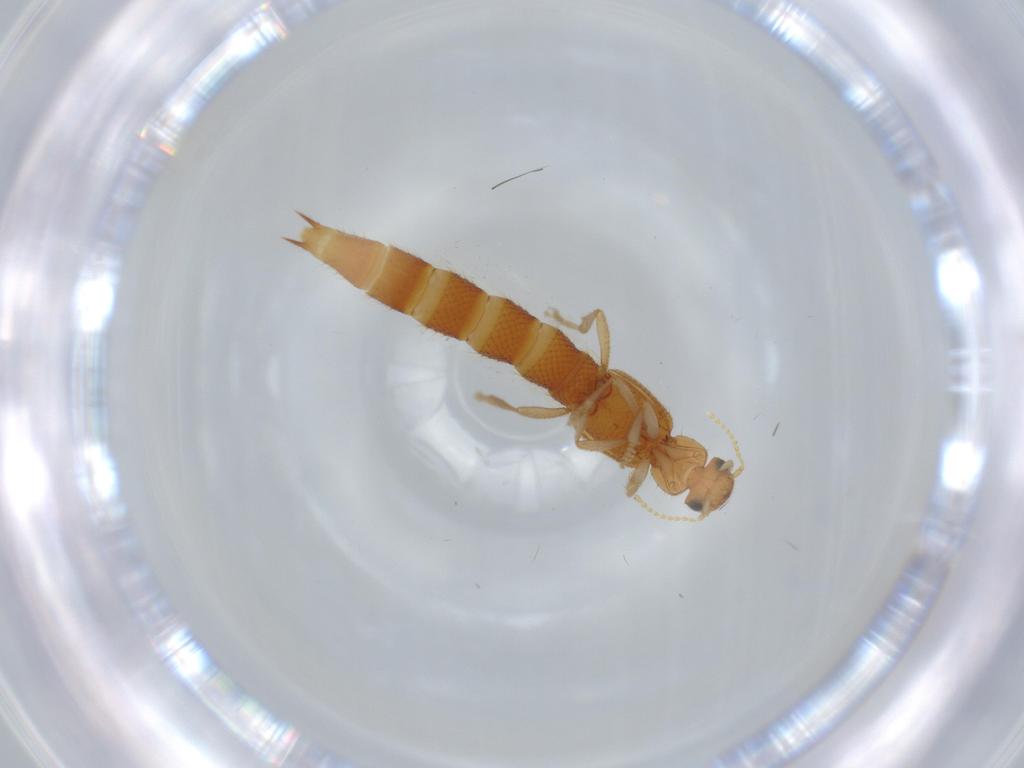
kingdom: Animalia
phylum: Arthropoda
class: Insecta
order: Coleoptera
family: Staphylinidae
